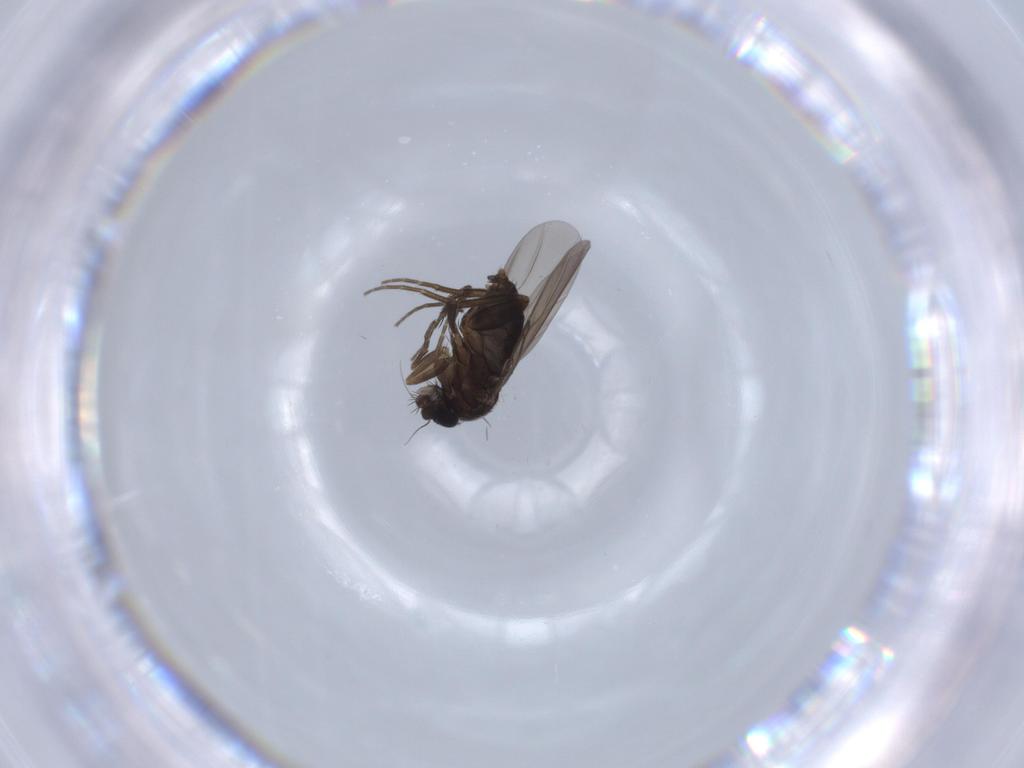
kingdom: Animalia
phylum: Arthropoda
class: Insecta
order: Diptera
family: Phoridae
